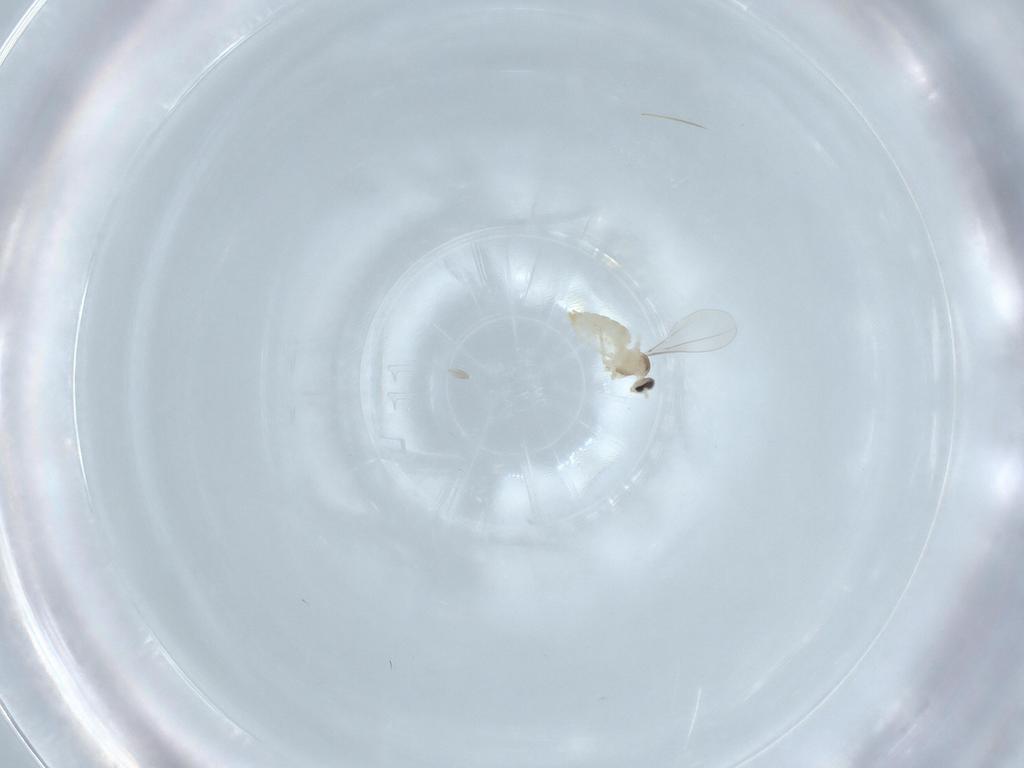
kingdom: Animalia
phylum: Arthropoda
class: Insecta
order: Diptera
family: Cecidomyiidae
